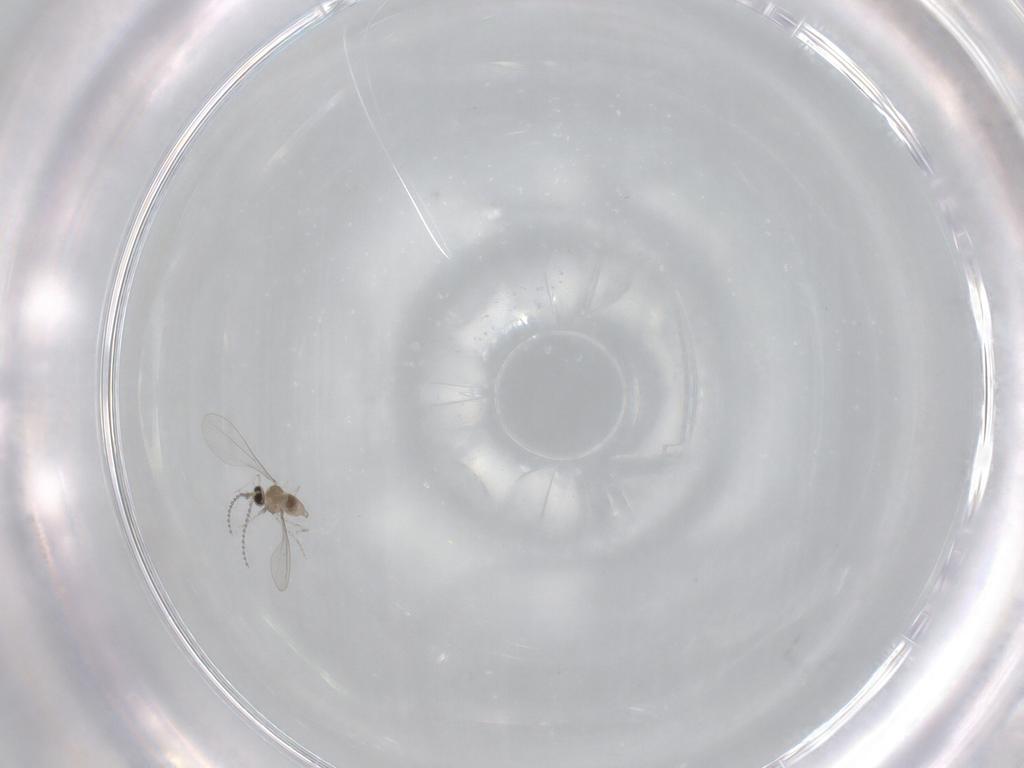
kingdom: Animalia
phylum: Arthropoda
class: Insecta
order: Diptera
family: Cecidomyiidae
